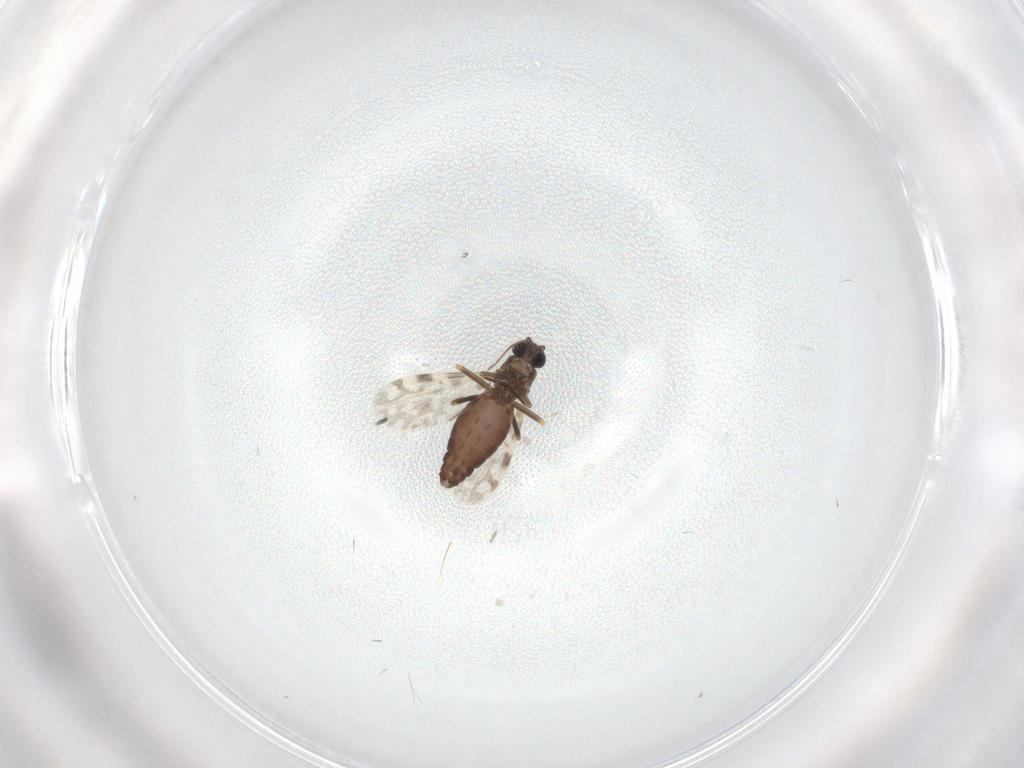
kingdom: Animalia
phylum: Arthropoda
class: Insecta
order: Diptera
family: Ceratopogonidae
